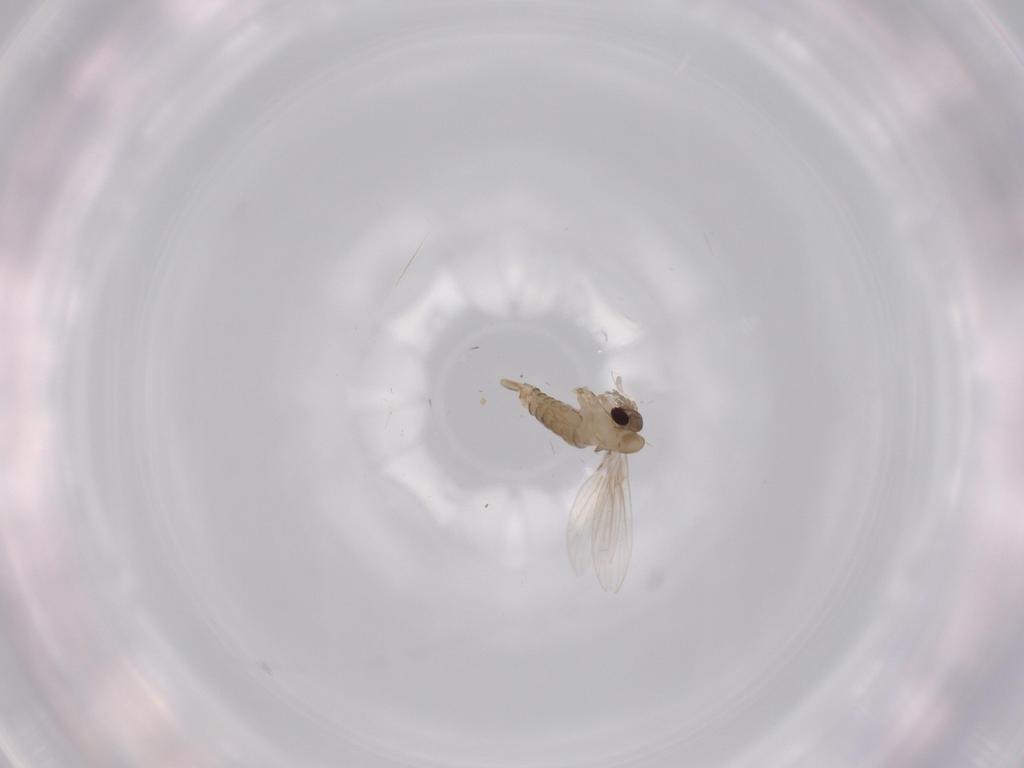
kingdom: Animalia
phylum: Arthropoda
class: Insecta
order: Diptera
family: Psychodidae
